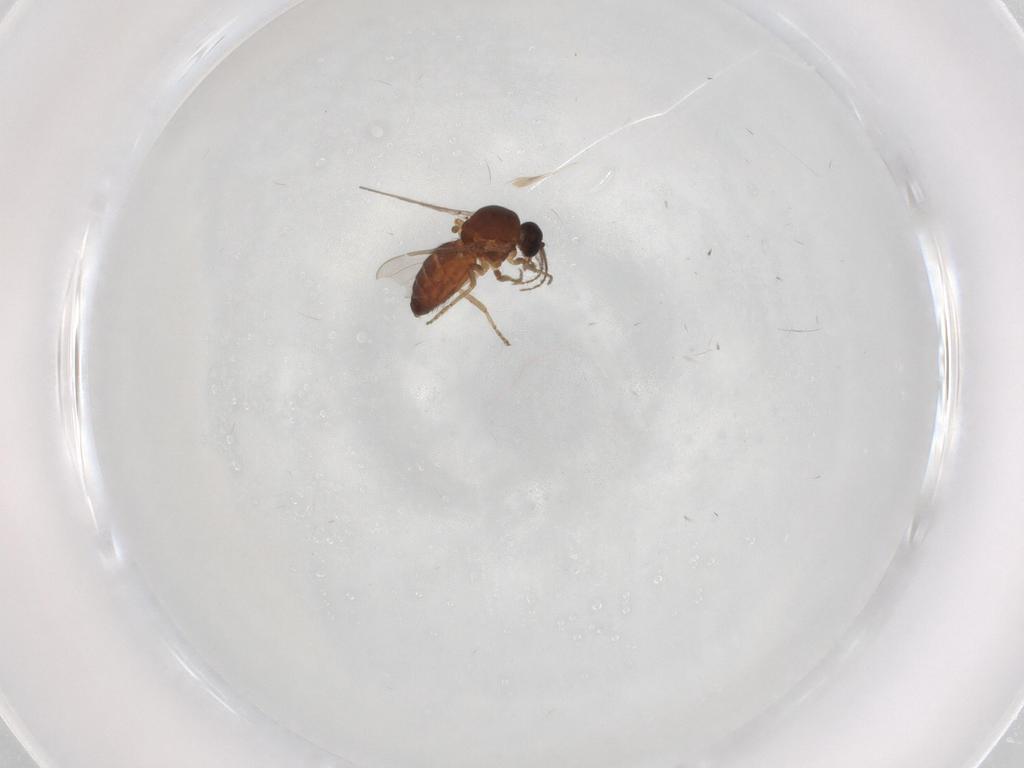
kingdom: Animalia
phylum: Arthropoda
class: Insecta
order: Diptera
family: Ceratopogonidae
